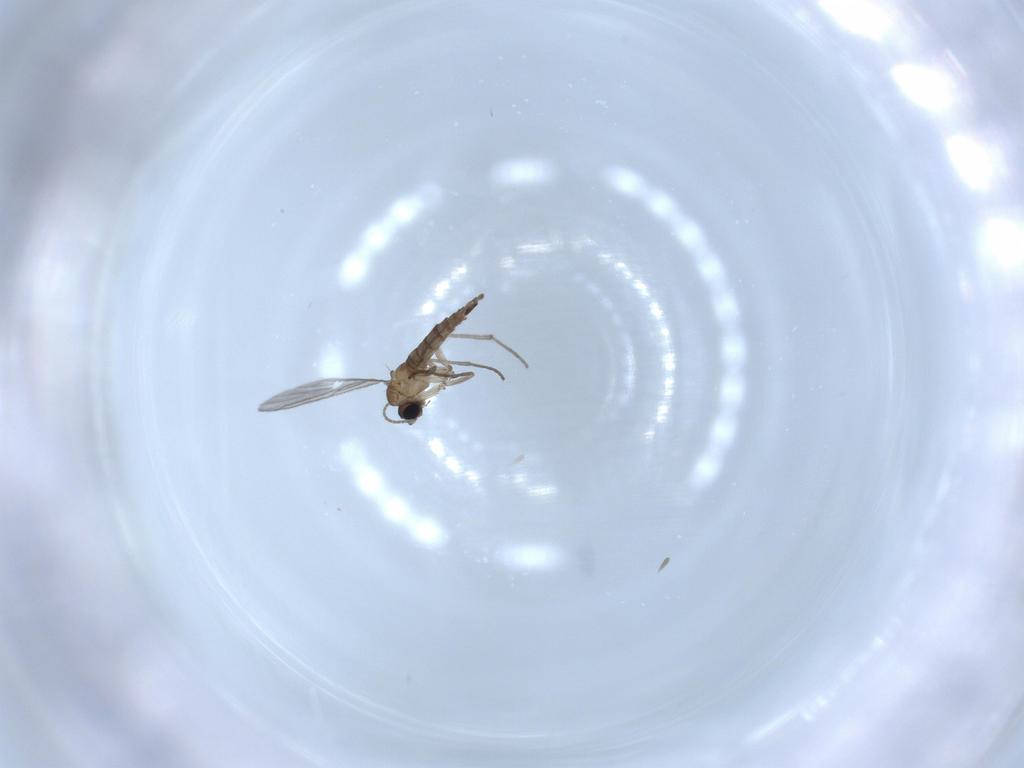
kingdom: Animalia
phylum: Arthropoda
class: Insecta
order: Diptera
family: Sciaridae
